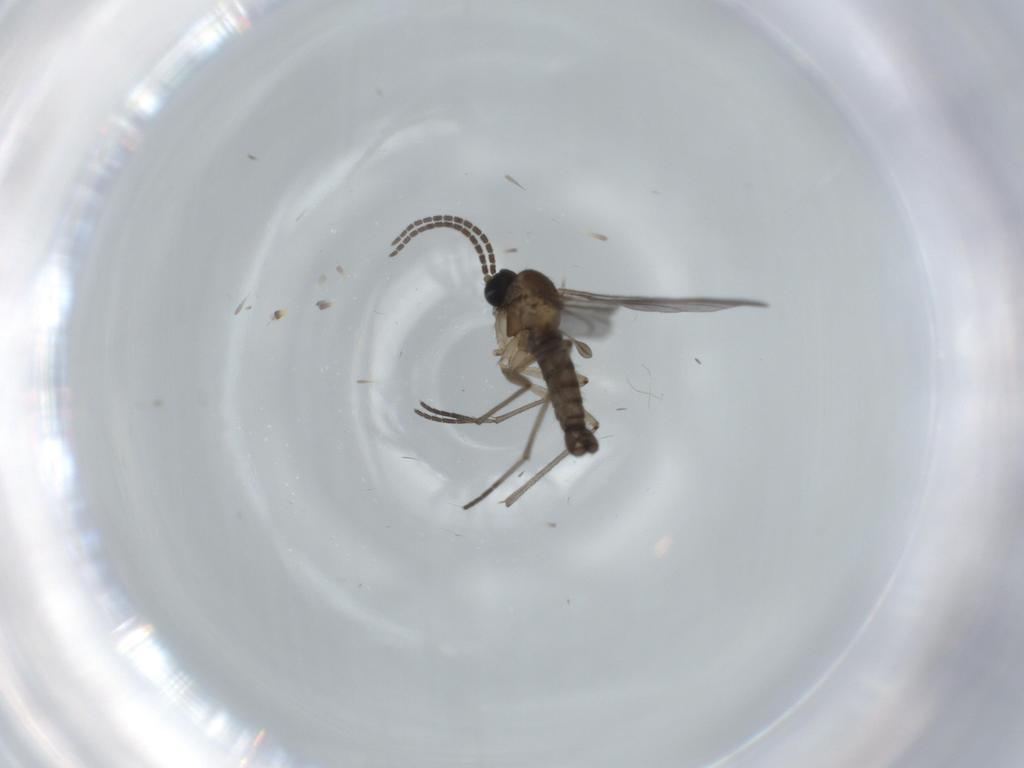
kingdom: Animalia
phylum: Arthropoda
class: Insecta
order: Diptera
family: Sciaridae
